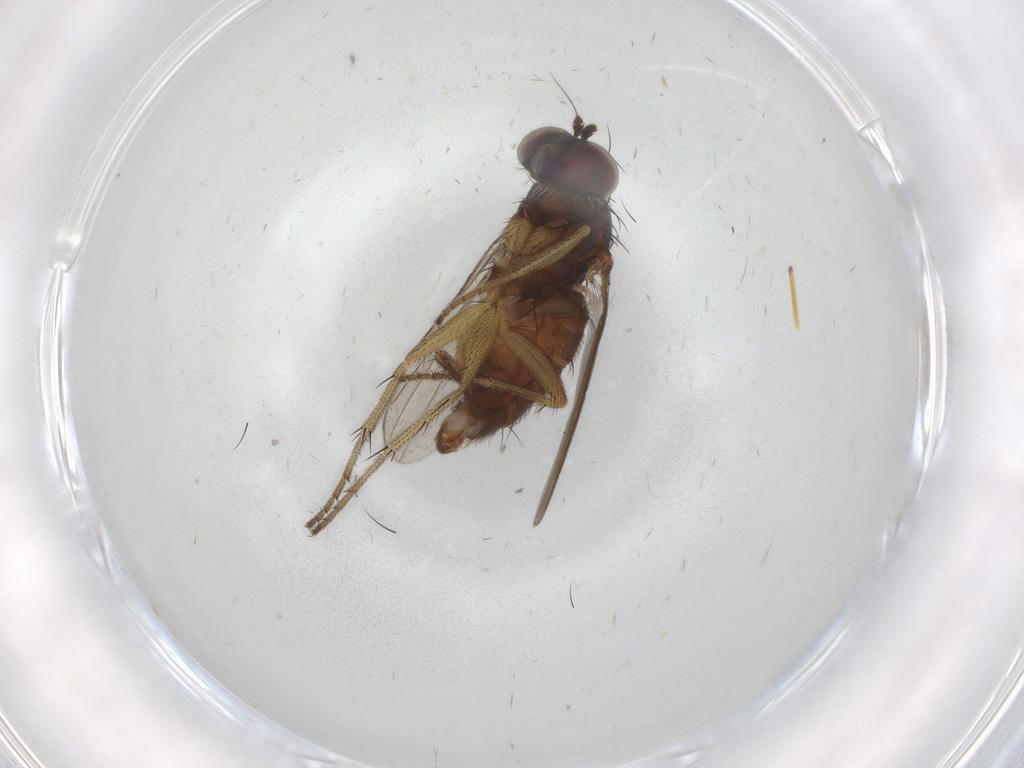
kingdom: Animalia
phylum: Arthropoda
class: Insecta
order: Diptera
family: Dolichopodidae
